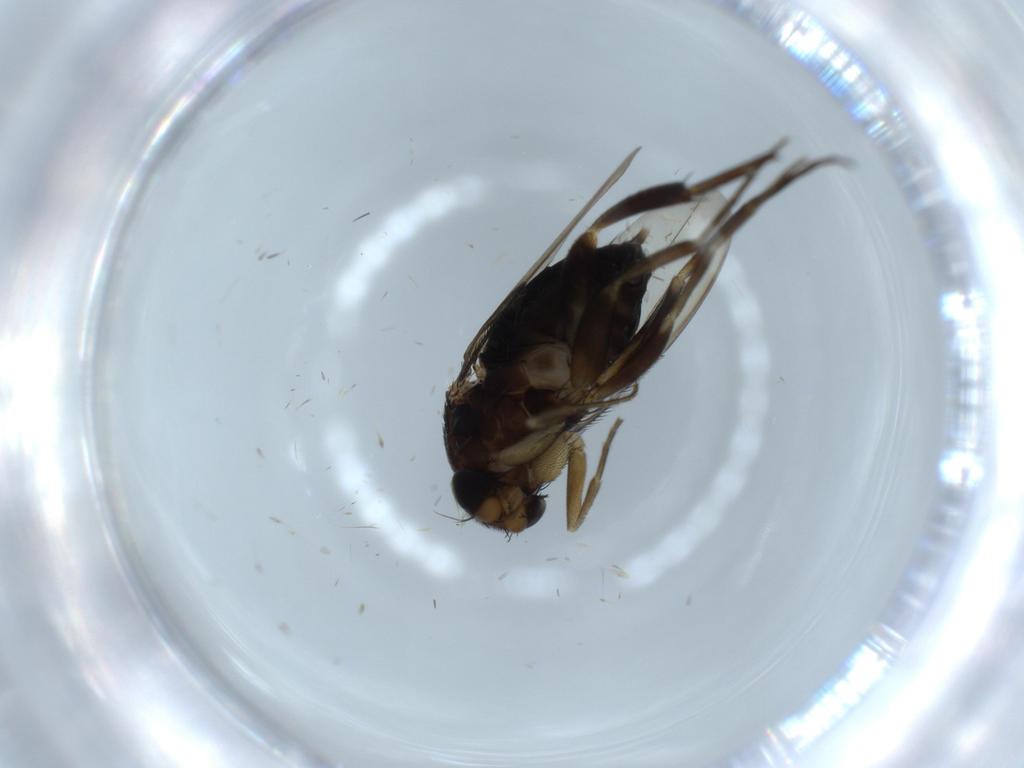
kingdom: Animalia
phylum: Arthropoda
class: Insecta
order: Diptera
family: Phoridae
